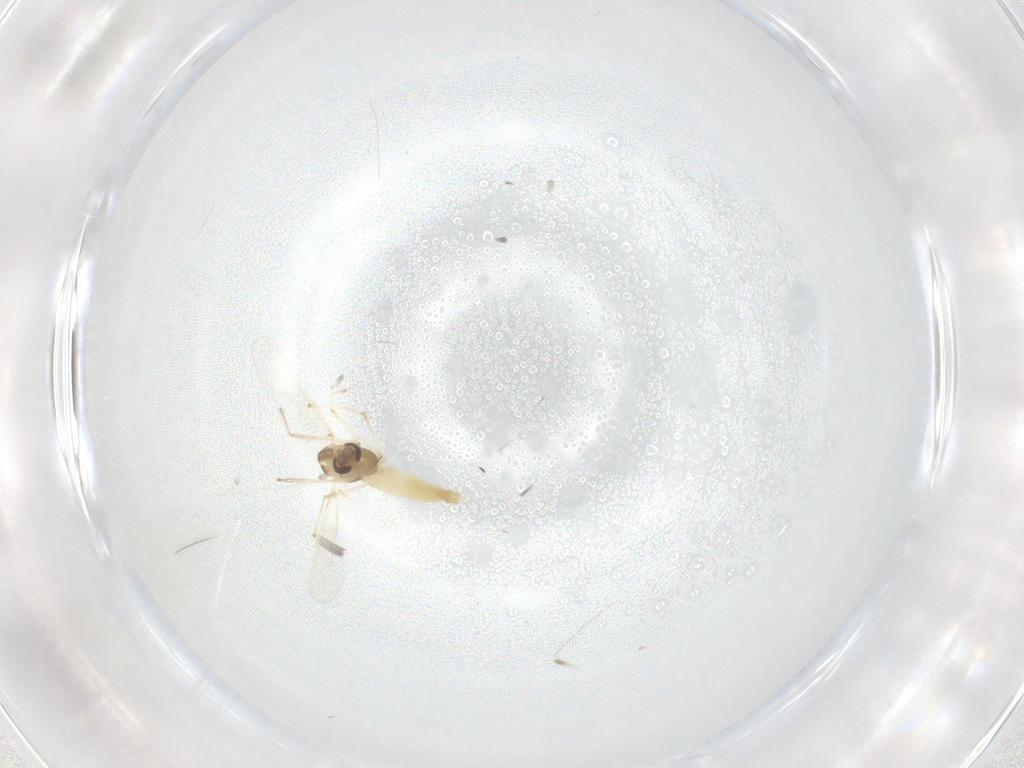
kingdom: Animalia
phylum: Arthropoda
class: Insecta
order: Diptera
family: Chironomidae
